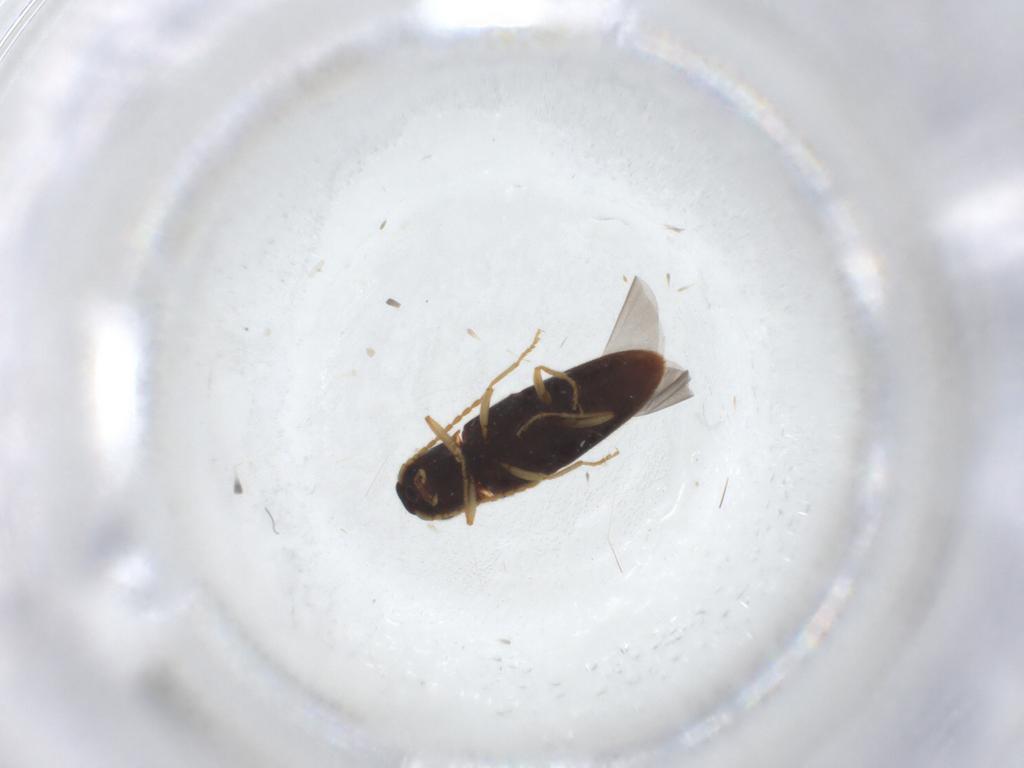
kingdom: Animalia
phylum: Arthropoda
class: Insecta
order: Coleoptera
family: Elateridae
